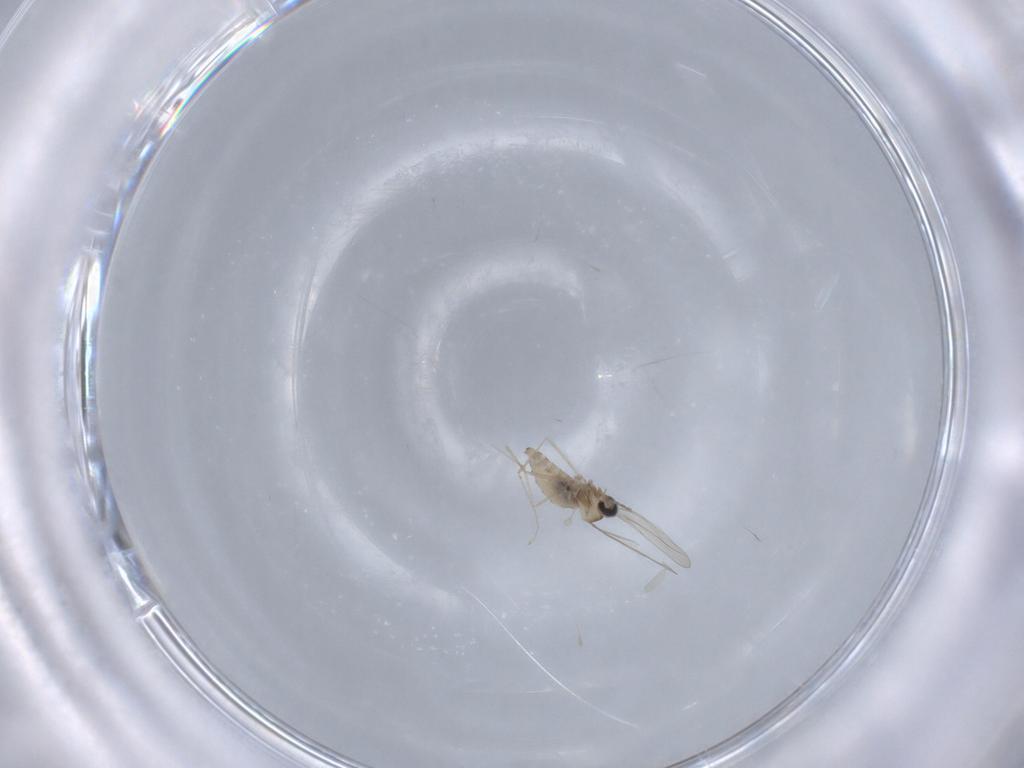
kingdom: Animalia
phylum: Arthropoda
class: Insecta
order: Diptera
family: Cecidomyiidae
